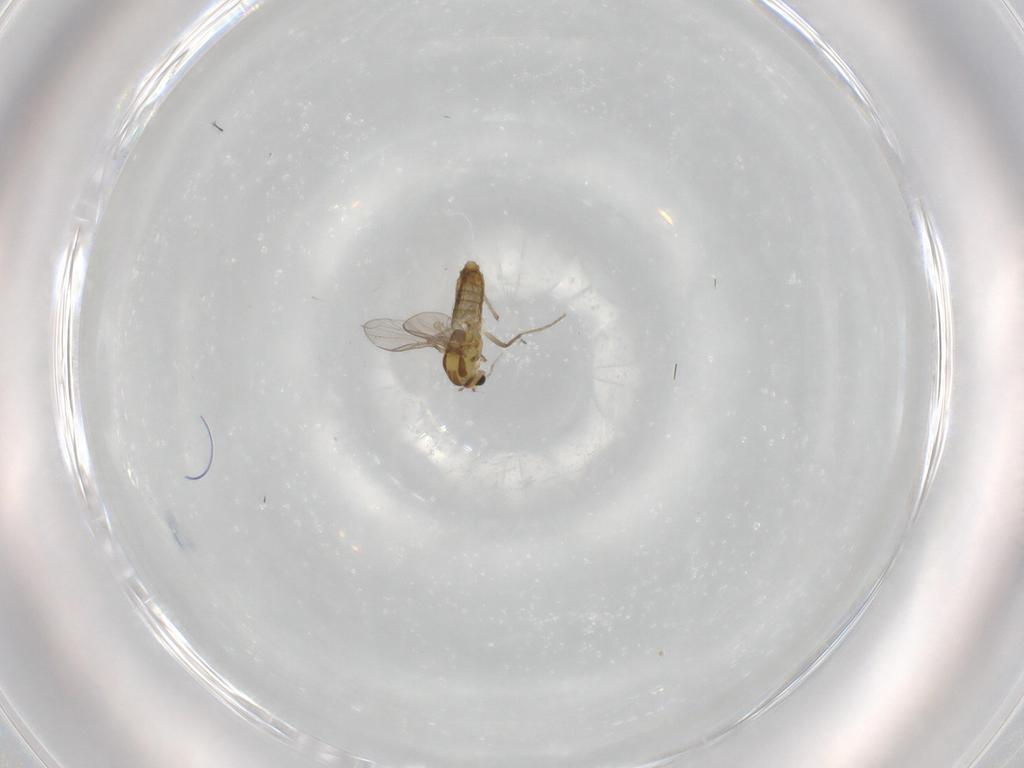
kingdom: Animalia
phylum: Arthropoda
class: Insecta
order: Diptera
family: Chironomidae
